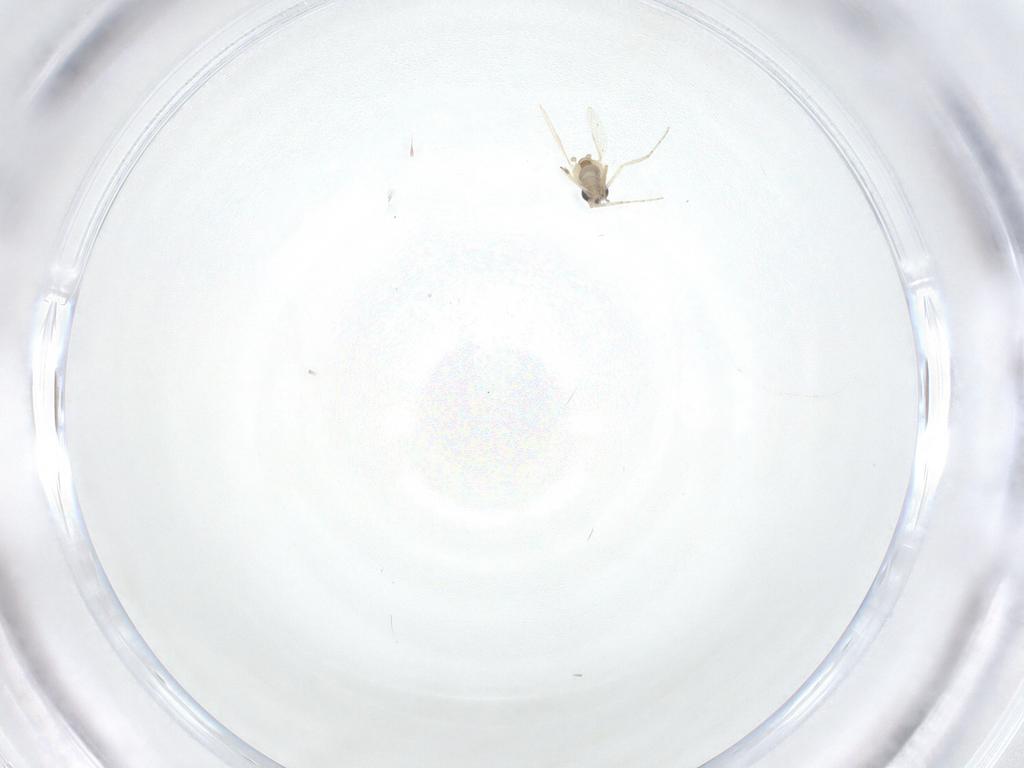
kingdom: Animalia
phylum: Arthropoda
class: Insecta
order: Diptera
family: Ceratopogonidae
